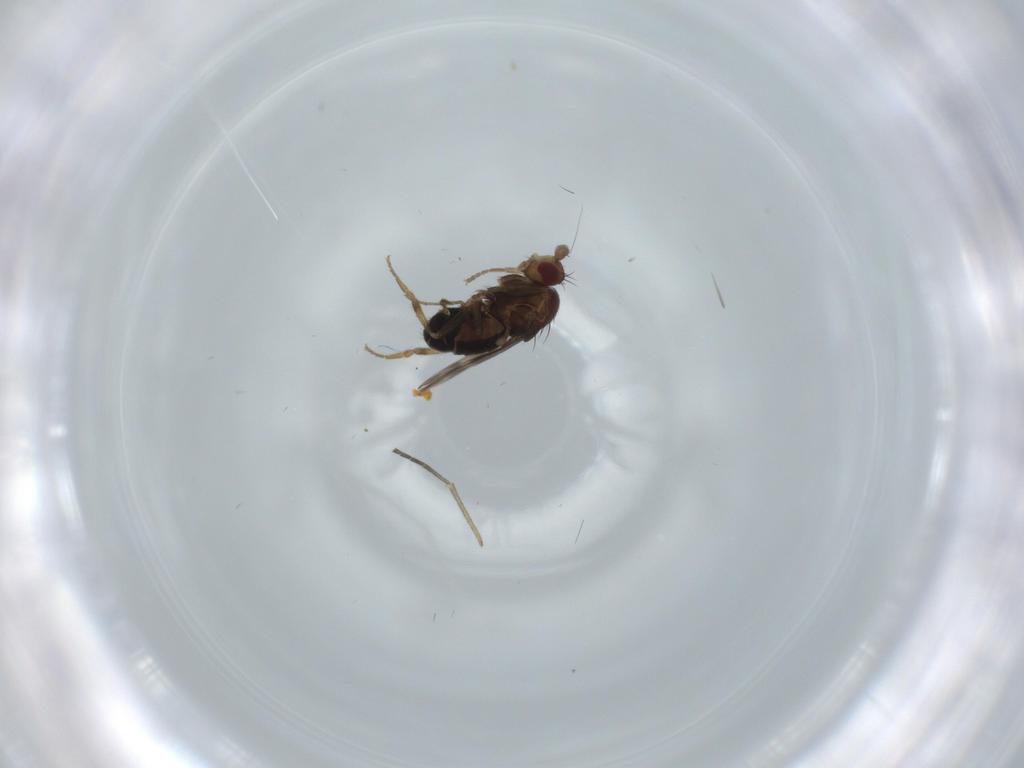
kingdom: Animalia
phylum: Arthropoda
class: Insecta
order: Diptera
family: Sphaeroceridae
